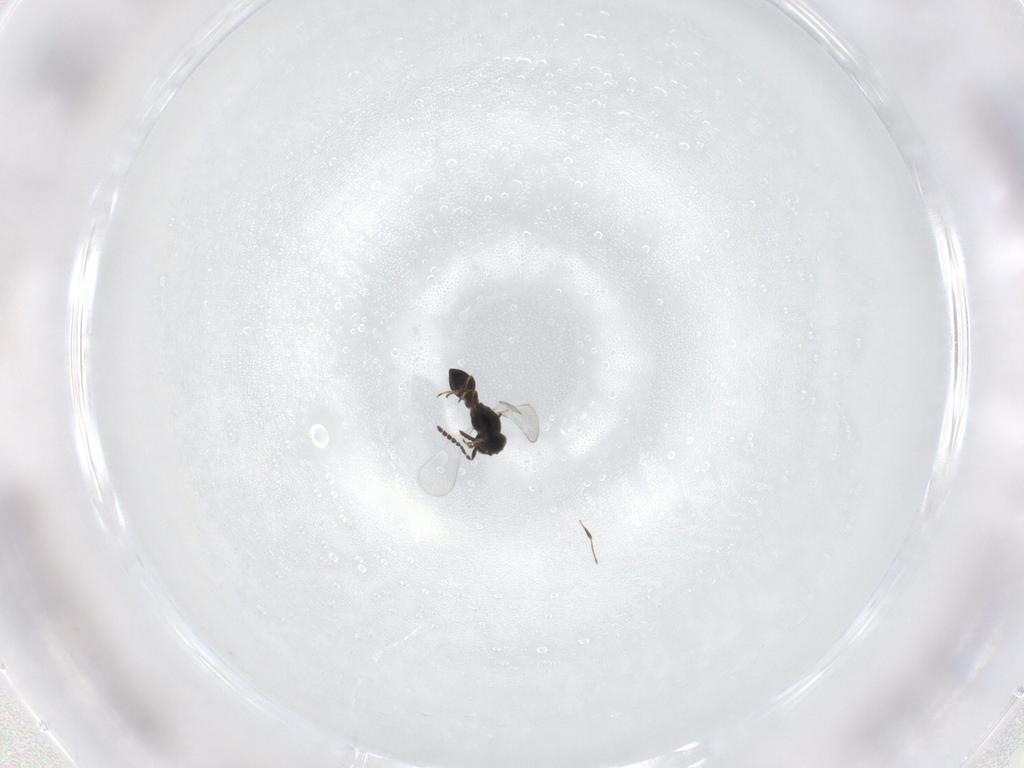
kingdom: Animalia
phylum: Arthropoda
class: Insecta
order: Hymenoptera
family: Platygastridae
